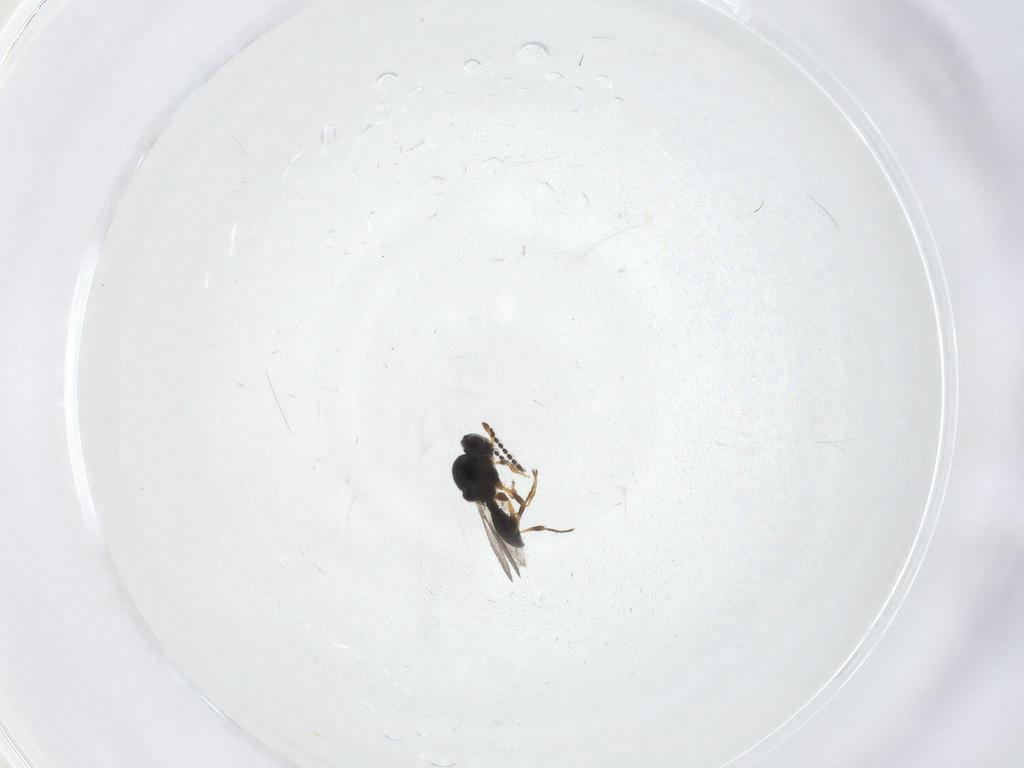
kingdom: Animalia
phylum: Arthropoda
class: Insecta
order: Hymenoptera
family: Platygastridae
